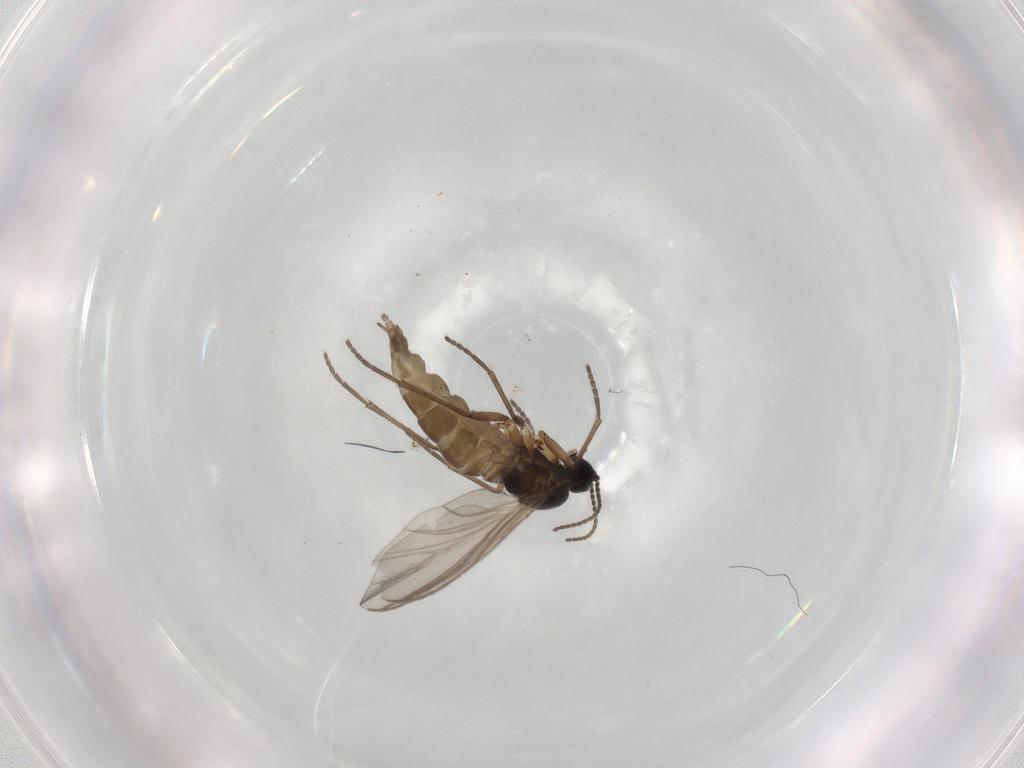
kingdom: Animalia
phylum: Arthropoda
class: Insecta
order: Diptera
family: Sciaridae
